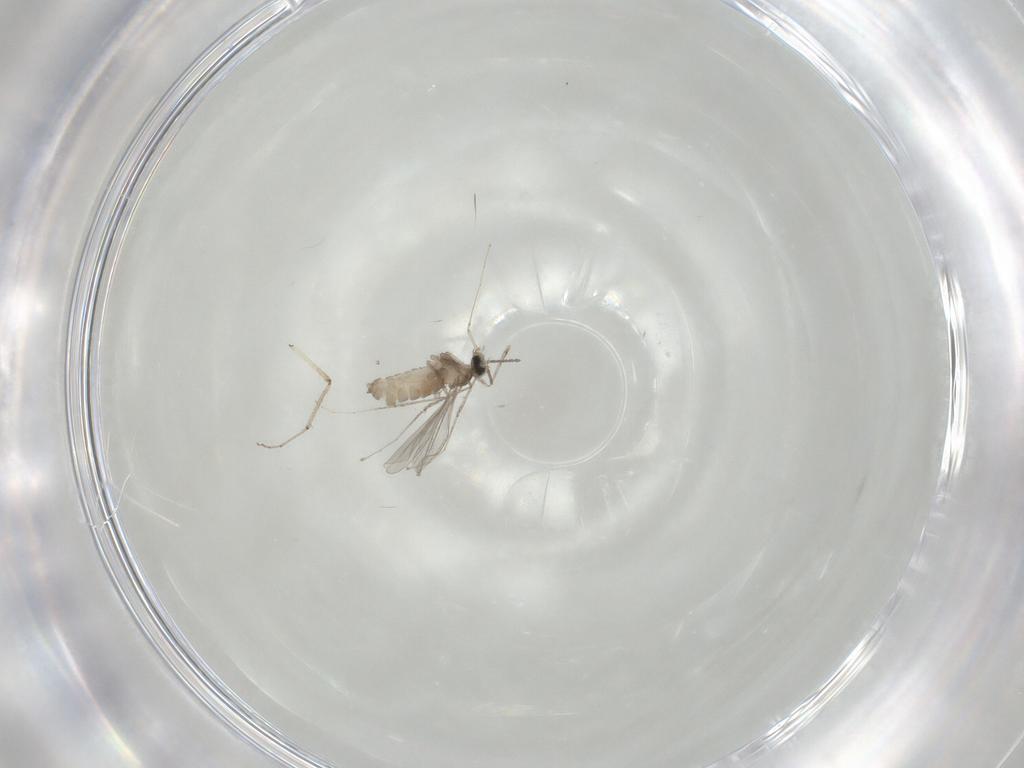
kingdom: Animalia
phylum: Arthropoda
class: Insecta
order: Diptera
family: Cecidomyiidae
